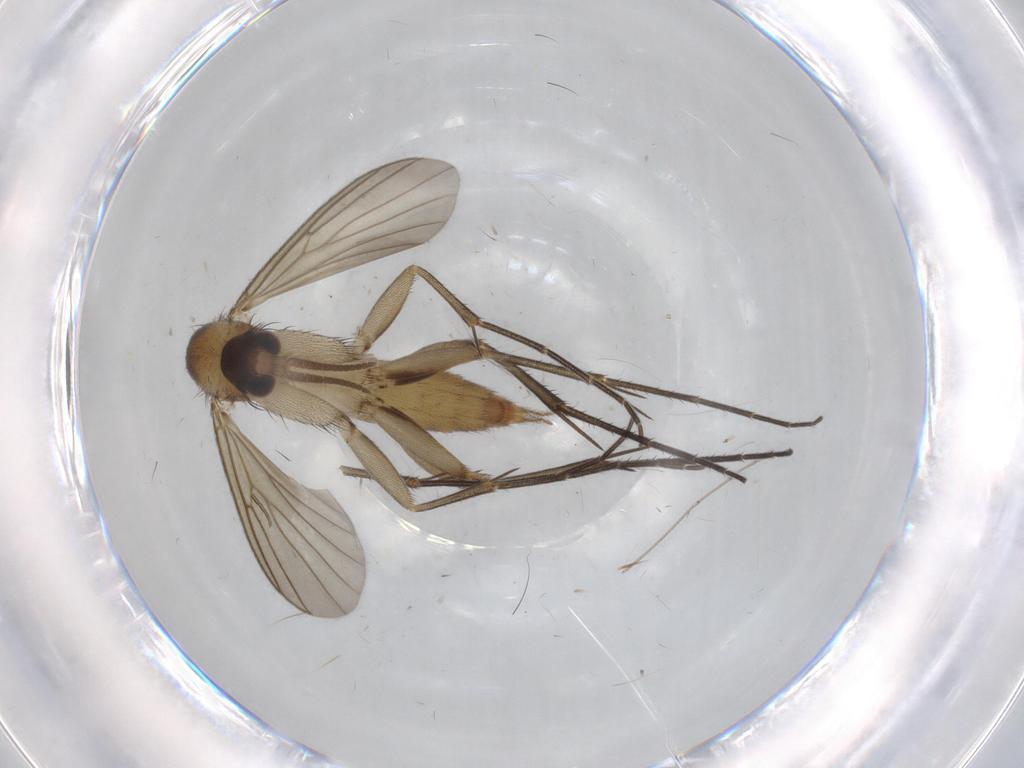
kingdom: Animalia
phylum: Arthropoda
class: Insecta
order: Diptera
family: Mycetophilidae
